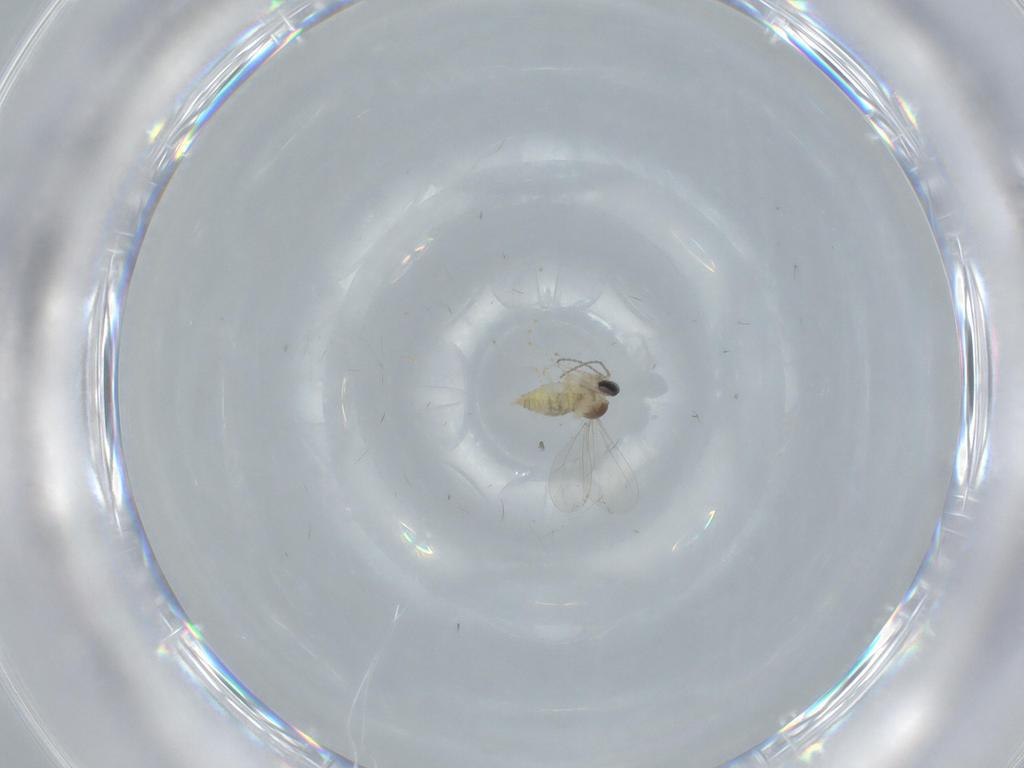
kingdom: Animalia
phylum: Arthropoda
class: Insecta
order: Diptera
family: Cecidomyiidae
